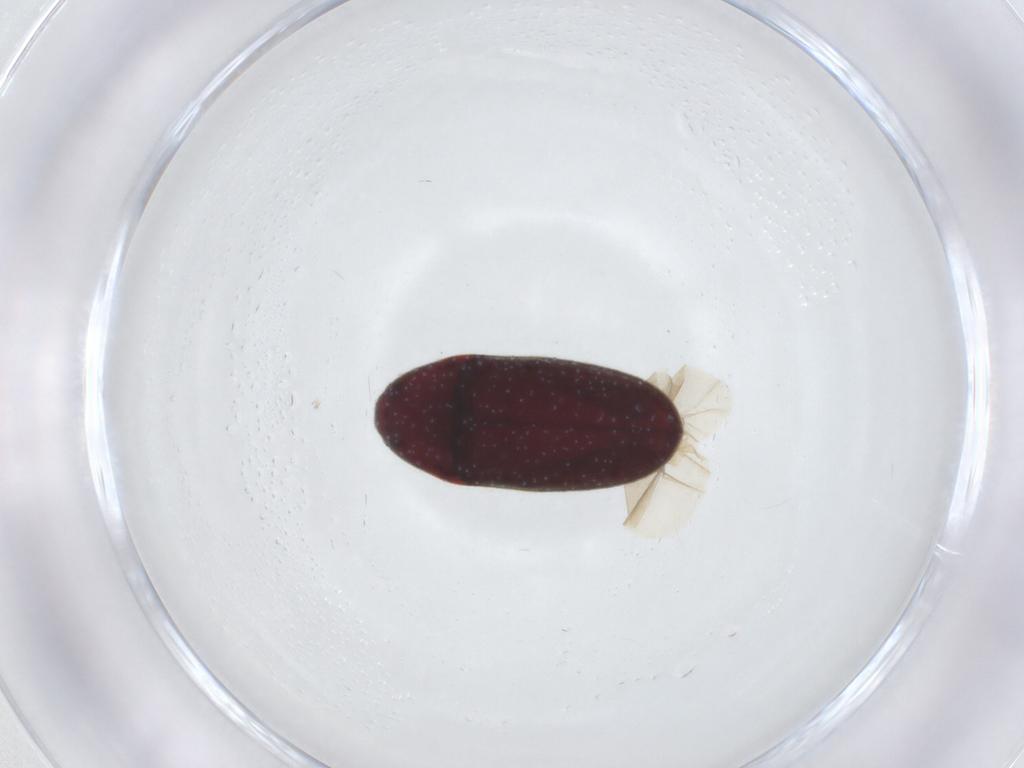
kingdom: Animalia
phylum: Arthropoda
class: Insecta
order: Coleoptera
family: Throscidae
